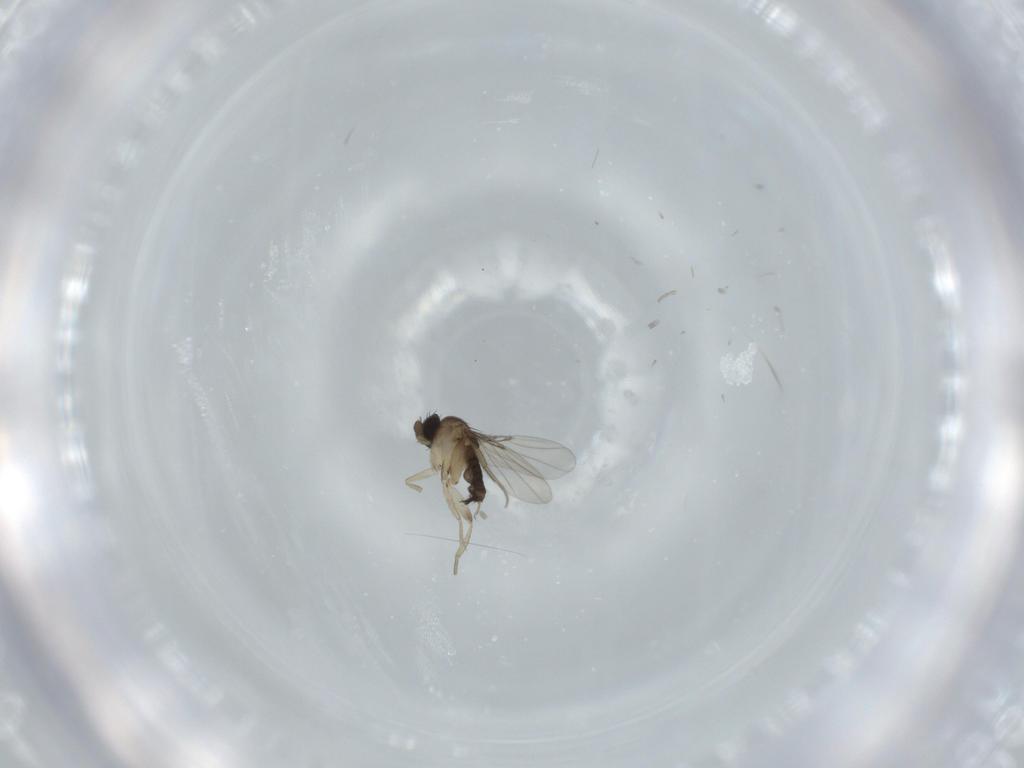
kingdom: Animalia
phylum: Arthropoda
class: Insecta
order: Diptera
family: Phoridae
